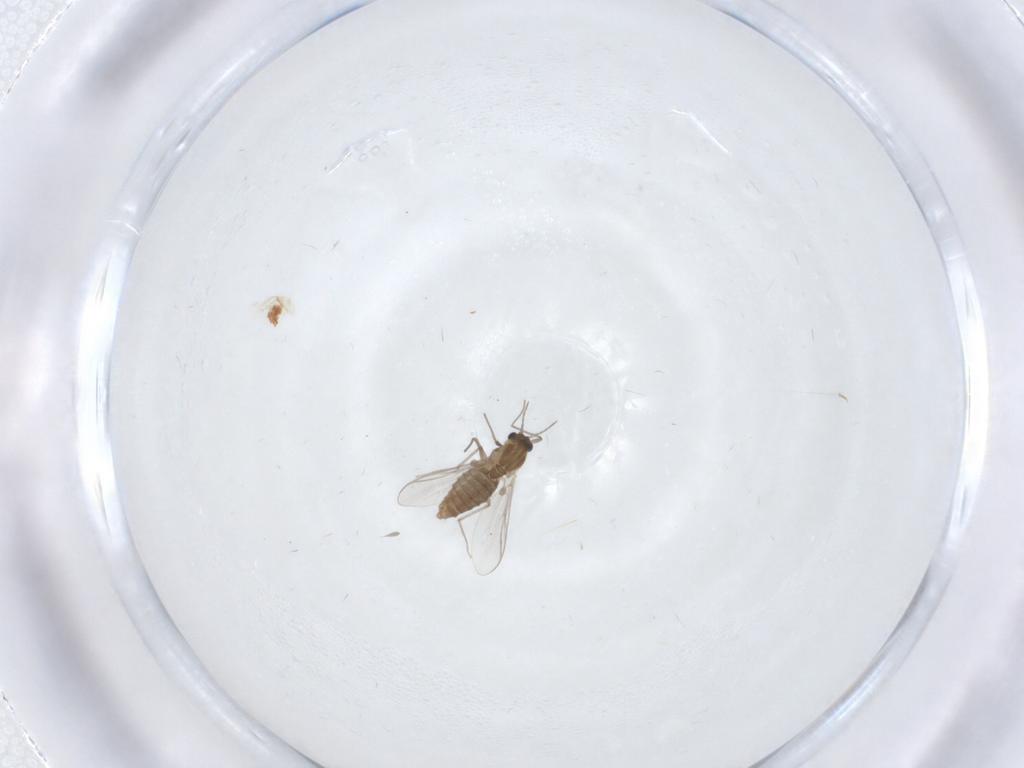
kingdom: Animalia
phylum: Arthropoda
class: Insecta
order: Diptera
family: Chironomidae
